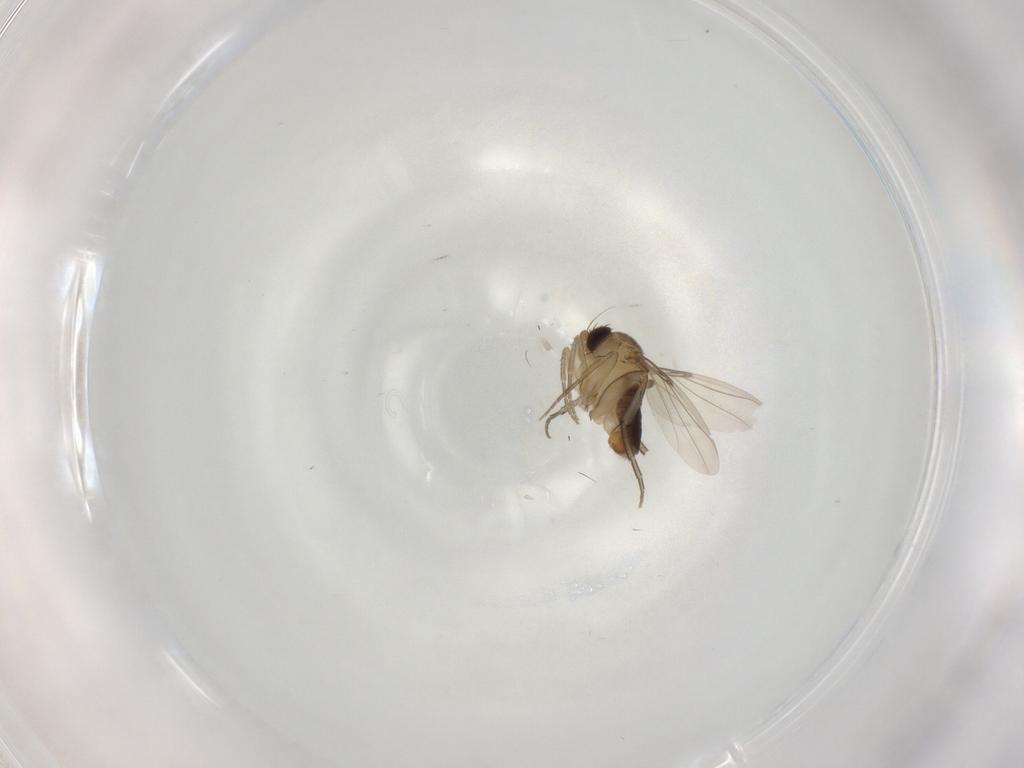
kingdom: Animalia
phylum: Arthropoda
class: Insecta
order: Diptera
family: Phoridae
